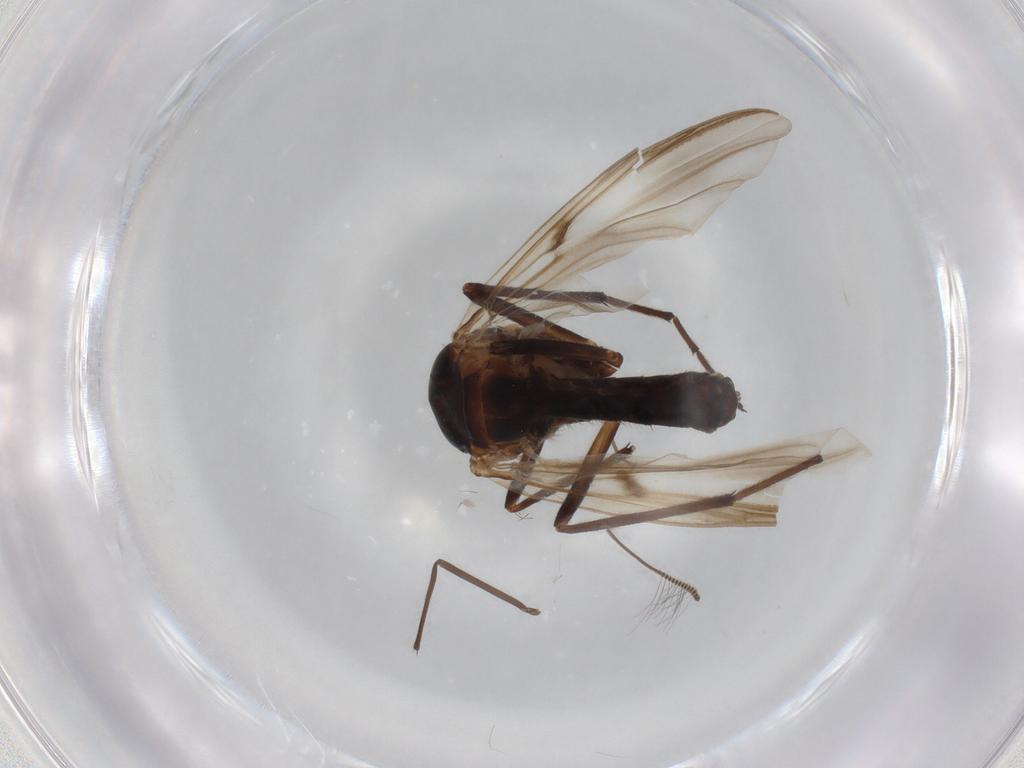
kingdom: Animalia
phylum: Arthropoda
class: Insecta
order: Diptera
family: Chironomidae
